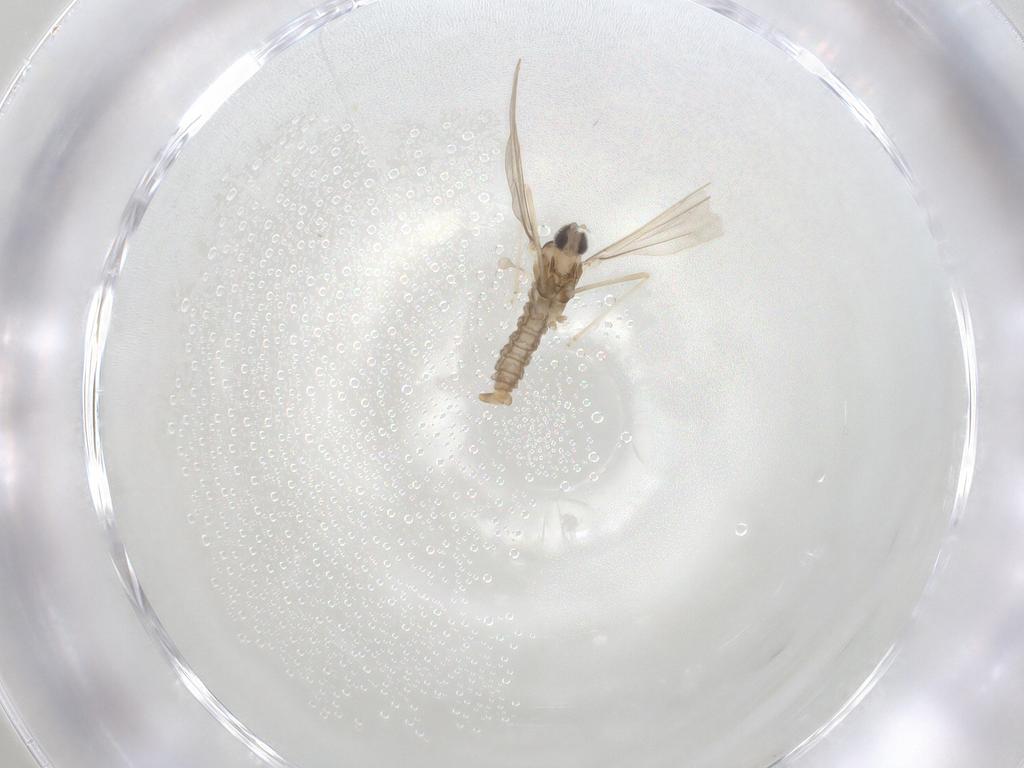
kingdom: Animalia
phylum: Arthropoda
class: Insecta
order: Diptera
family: Cecidomyiidae
